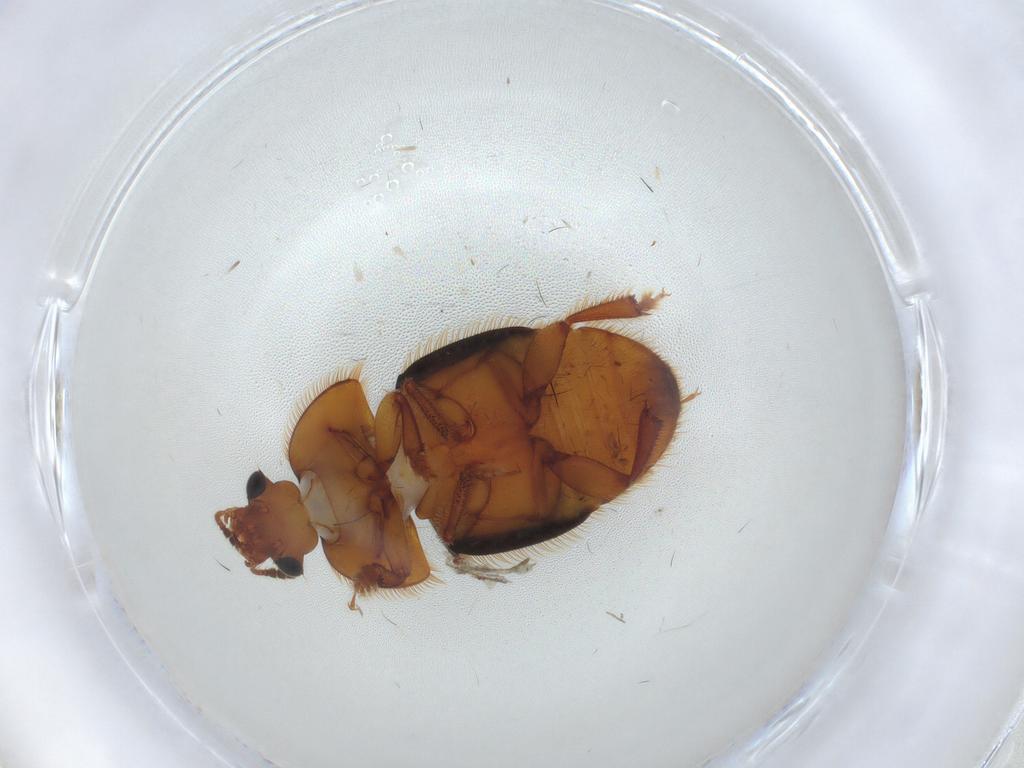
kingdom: Animalia
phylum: Arthropoda
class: Insecta
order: Coleoptera
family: Nitidulidae
